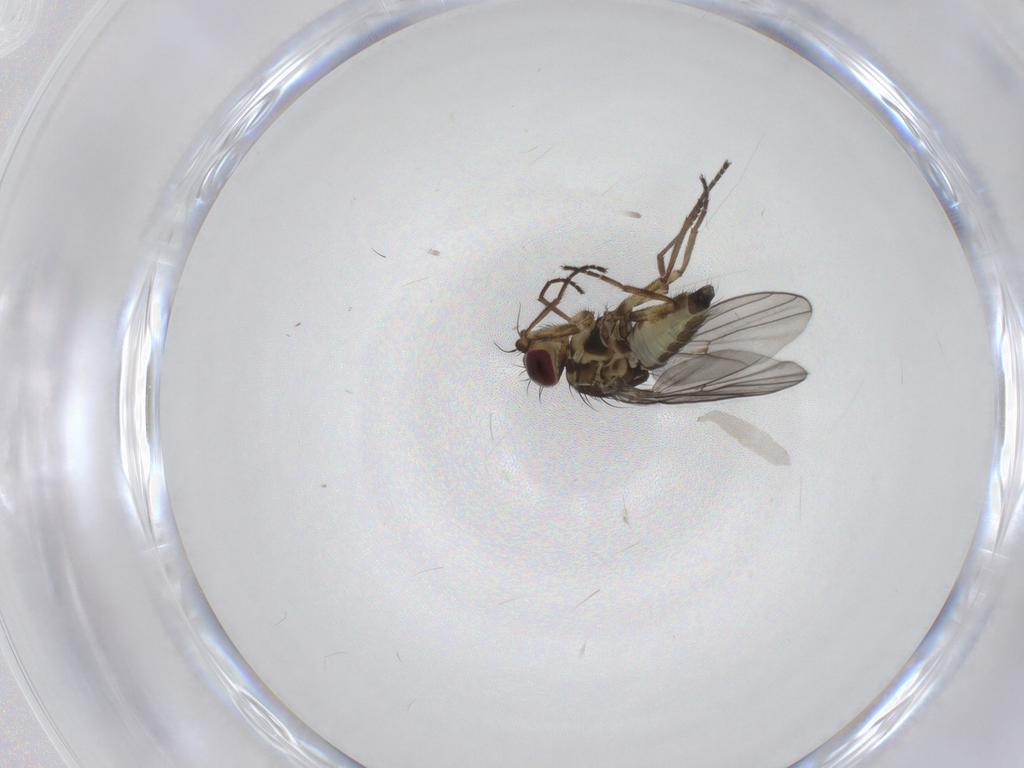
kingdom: Animalia
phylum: Arthropoda
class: Insecta
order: Diptera
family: Agromyzidae
